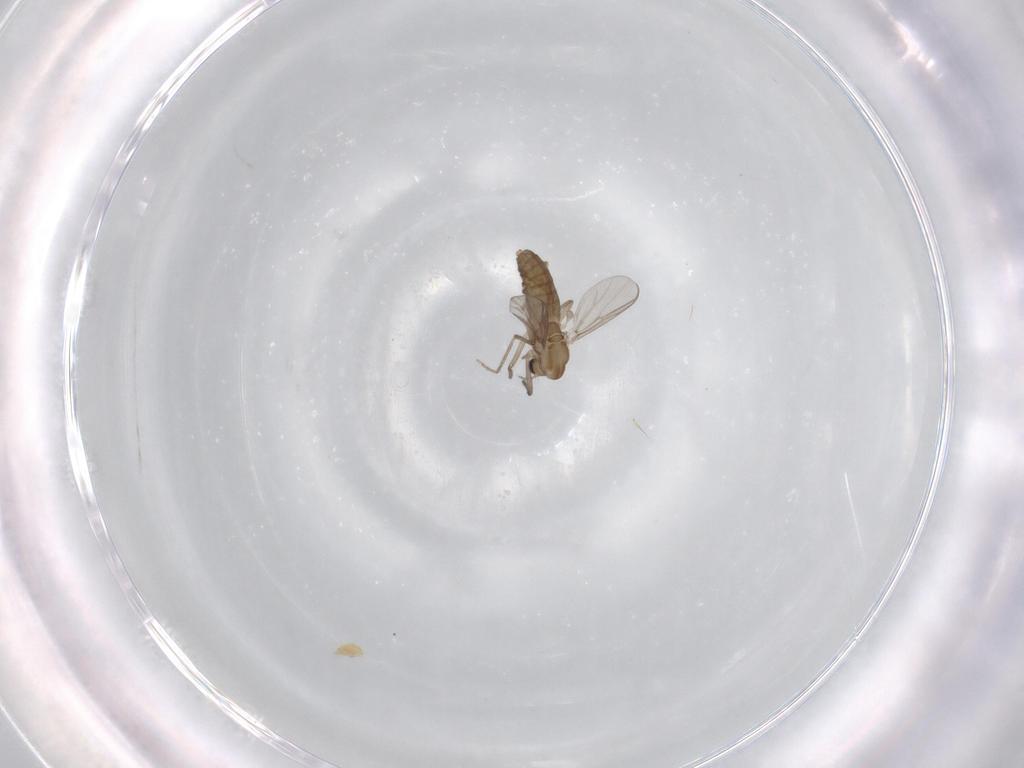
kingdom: Animalia
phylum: Arthropoda
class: Insecta
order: Diptera
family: Chironomidae
